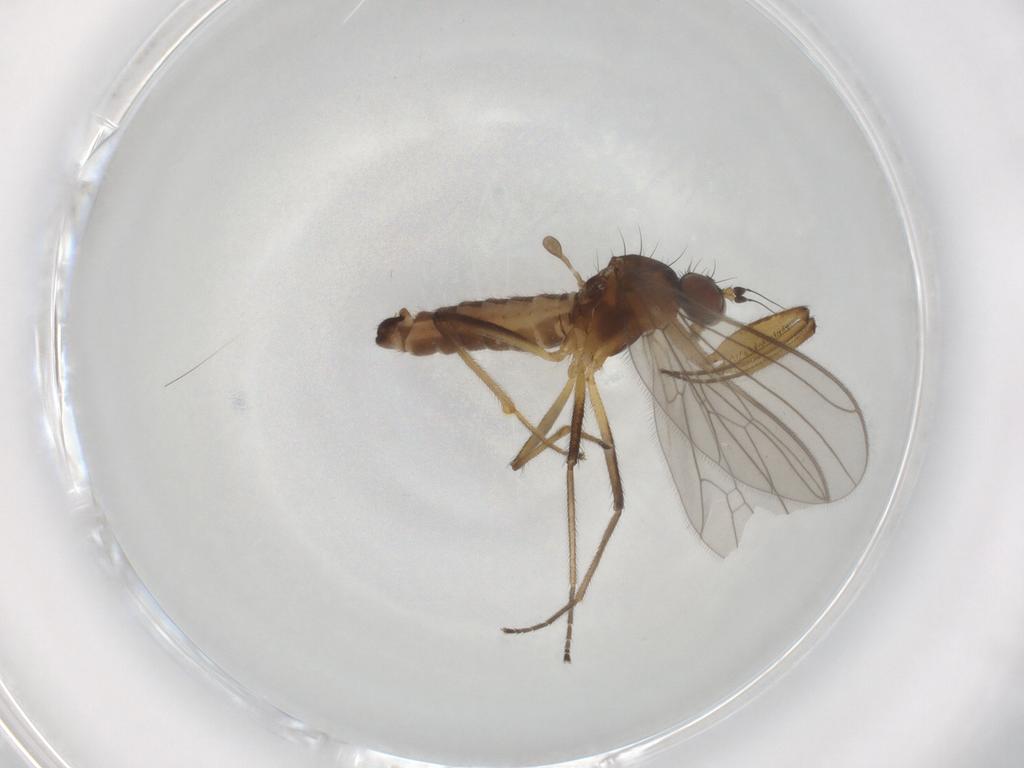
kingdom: Animalia
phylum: Arthropoda
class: Insecta
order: Diptera
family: Empididae
